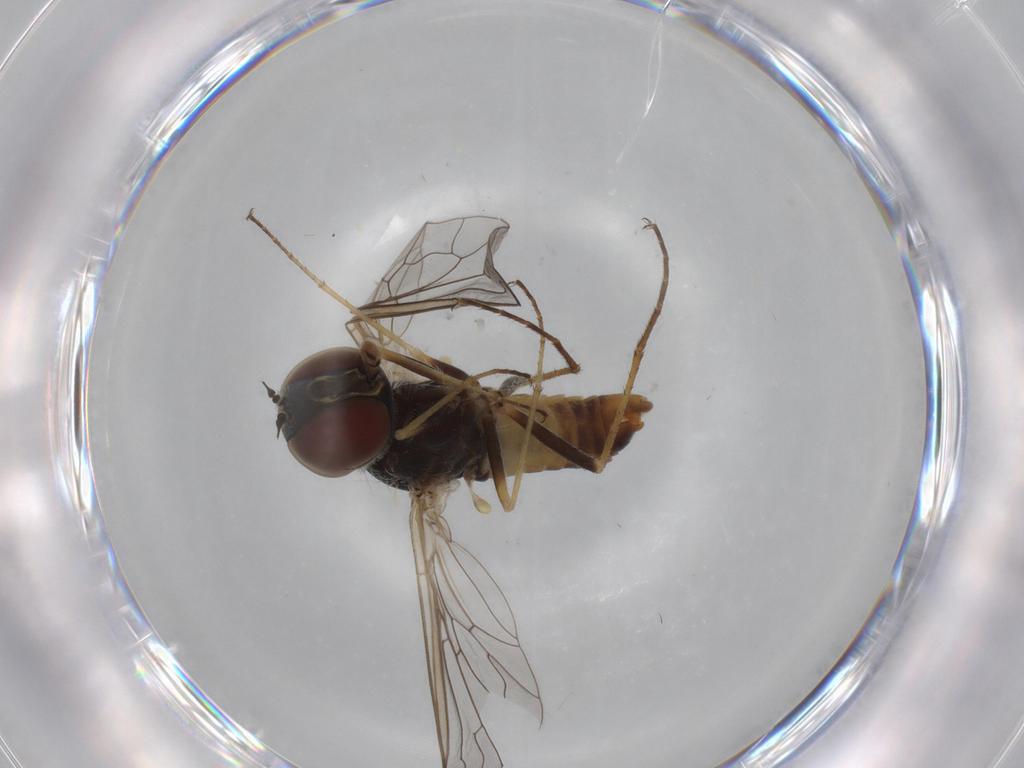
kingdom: Animalia
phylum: Arthropoda
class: Insecta
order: Diptera
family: Bombyliidae
